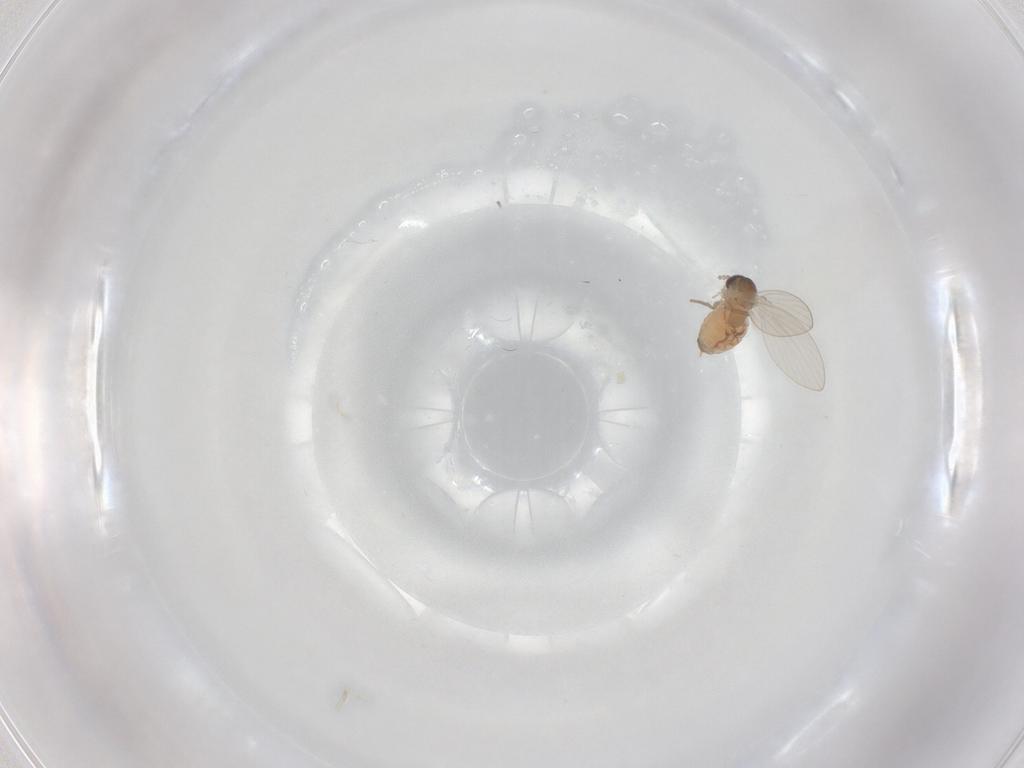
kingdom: Animalia
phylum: Arthropoda
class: Insecta
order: Diptera
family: Psychodidae
